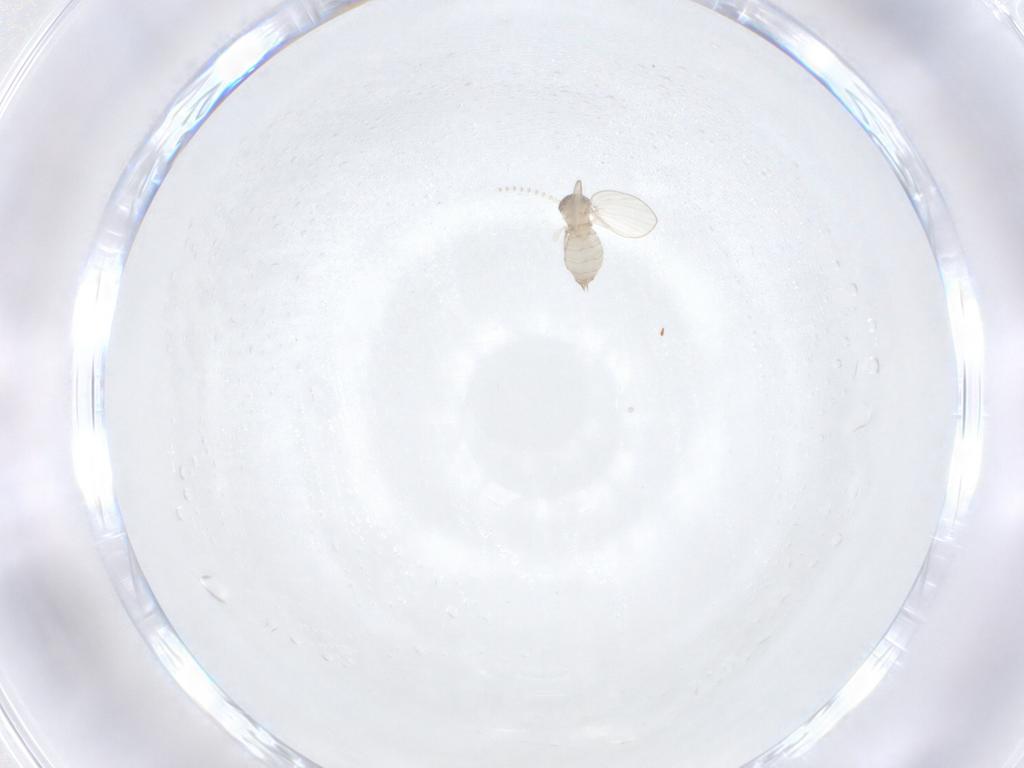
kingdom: Animalia
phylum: Arthropoda
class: Insecta
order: Diptera
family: Psychodidae
